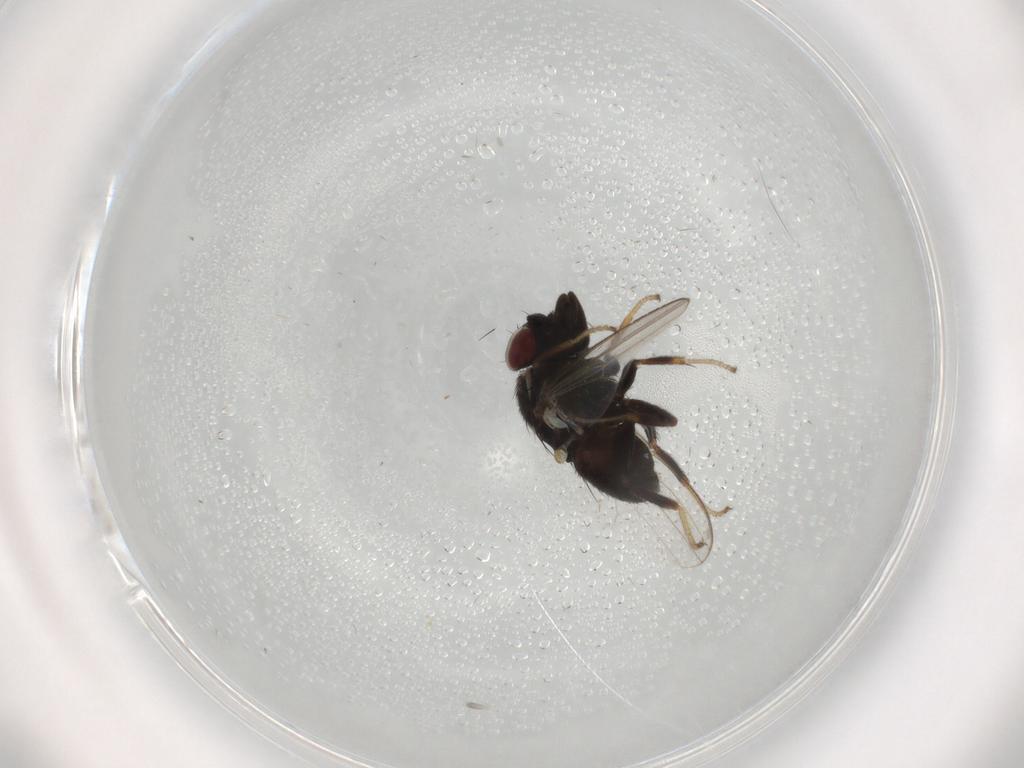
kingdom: Animalia
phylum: Arthropoda
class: Insecta
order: Diptera
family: Milichiidae
